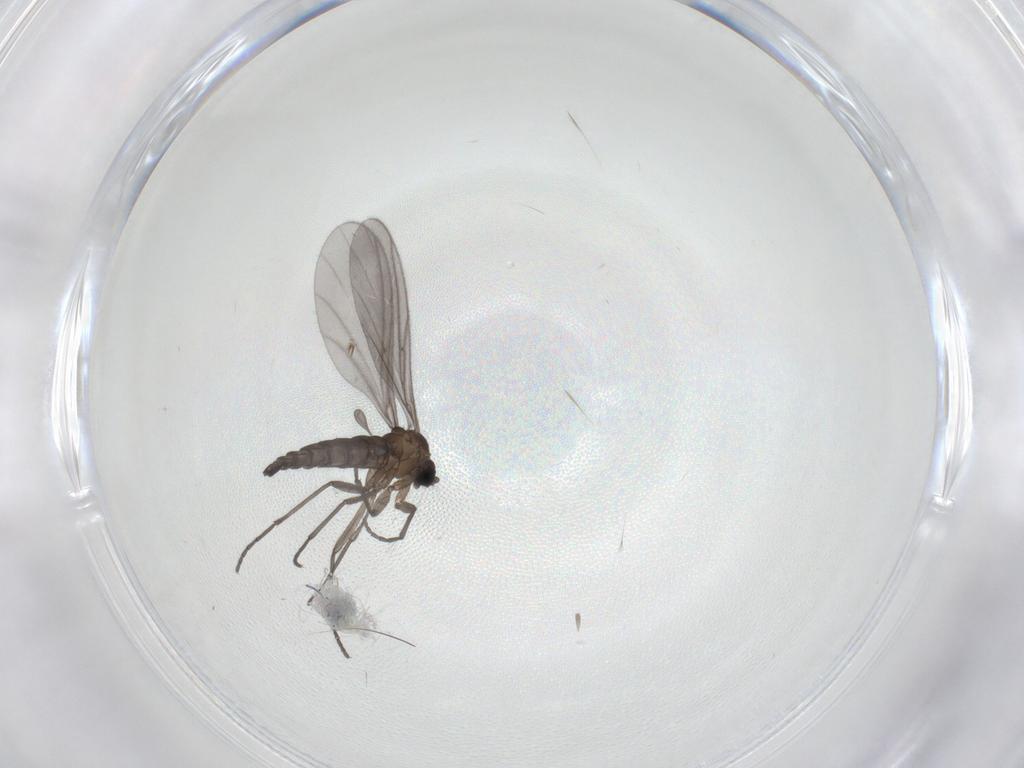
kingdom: Animalia
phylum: Arthropoda
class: Insecta
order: Diptera
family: Sciaridae
